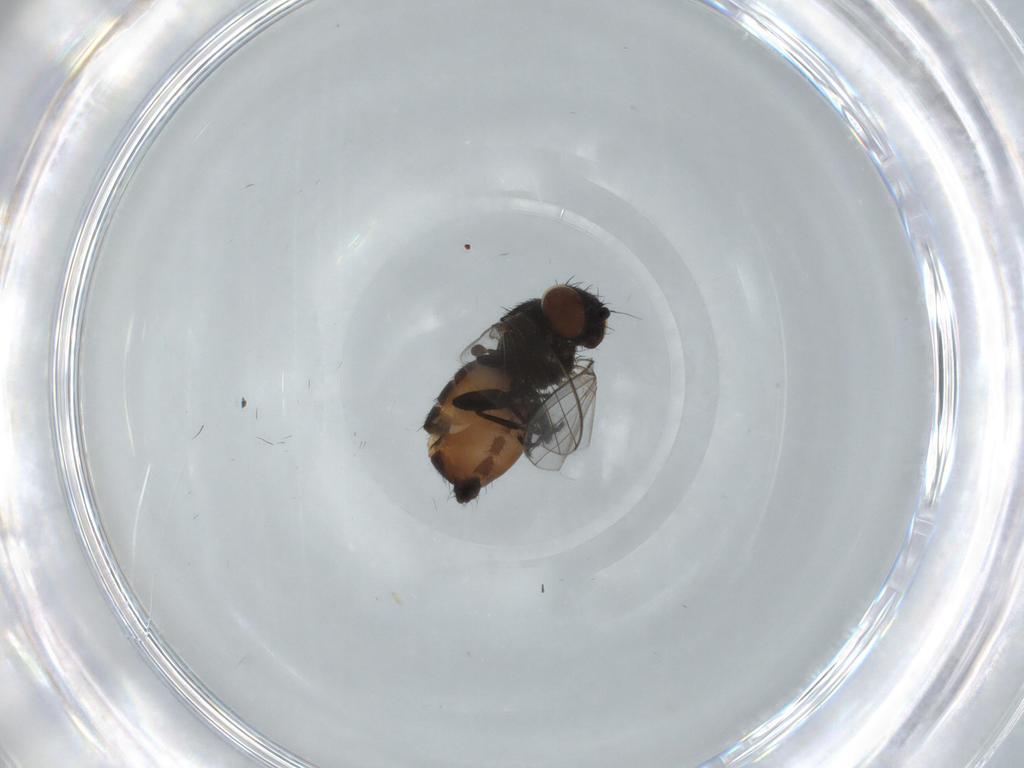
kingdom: Animalia
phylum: Arthropoda
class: Insecta
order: Diptera
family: Milichiidae
